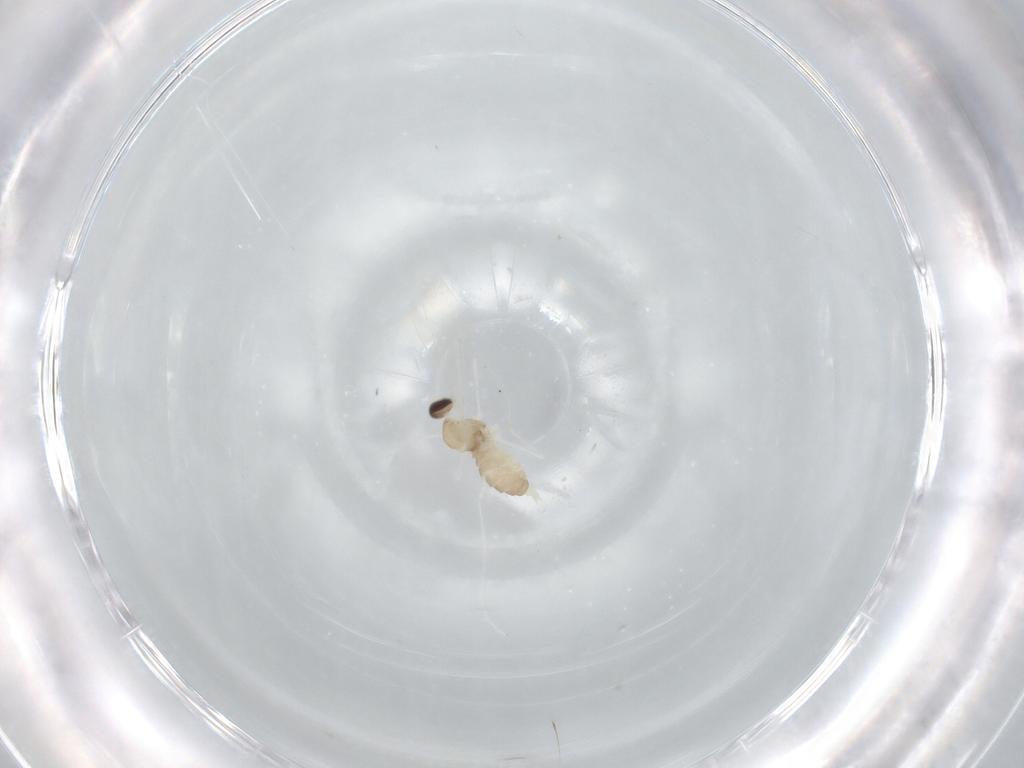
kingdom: Animalia
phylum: Arthropoda
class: Insecta
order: Diptera
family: Cecidomyiidae
